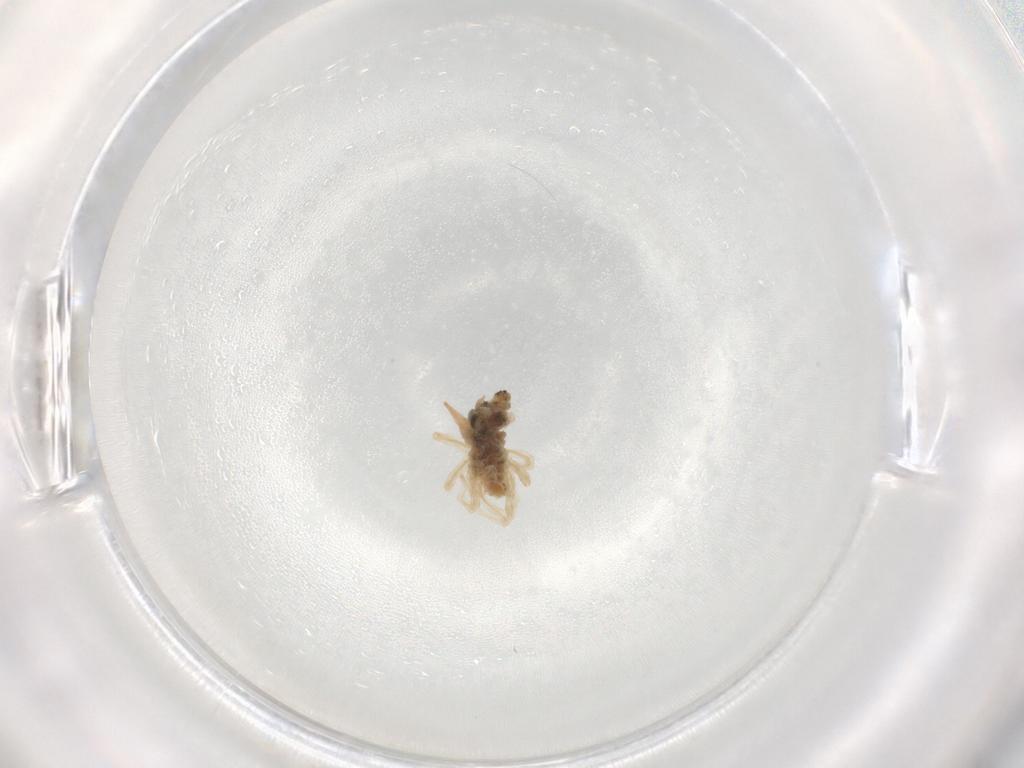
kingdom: Animalia
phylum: Arthropoda
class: Arachnida
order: Trombidiformes
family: Bdellidae
